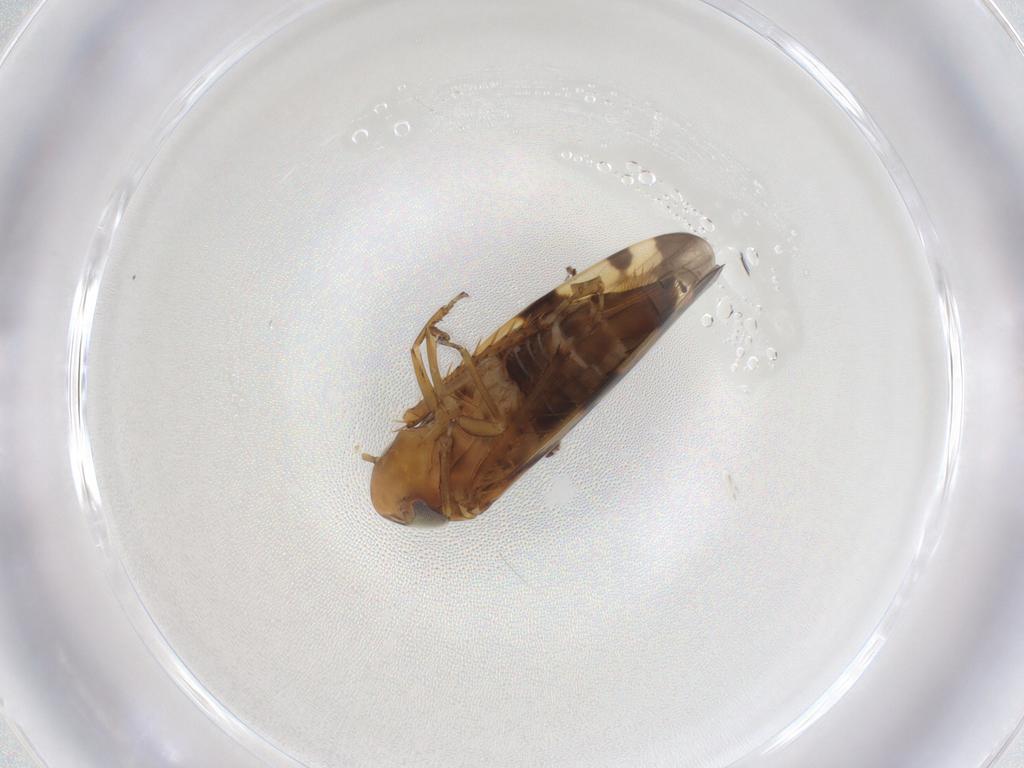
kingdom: Animalia
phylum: Arthropoda
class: Insecta
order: Hemiptera
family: Cicadellidae
